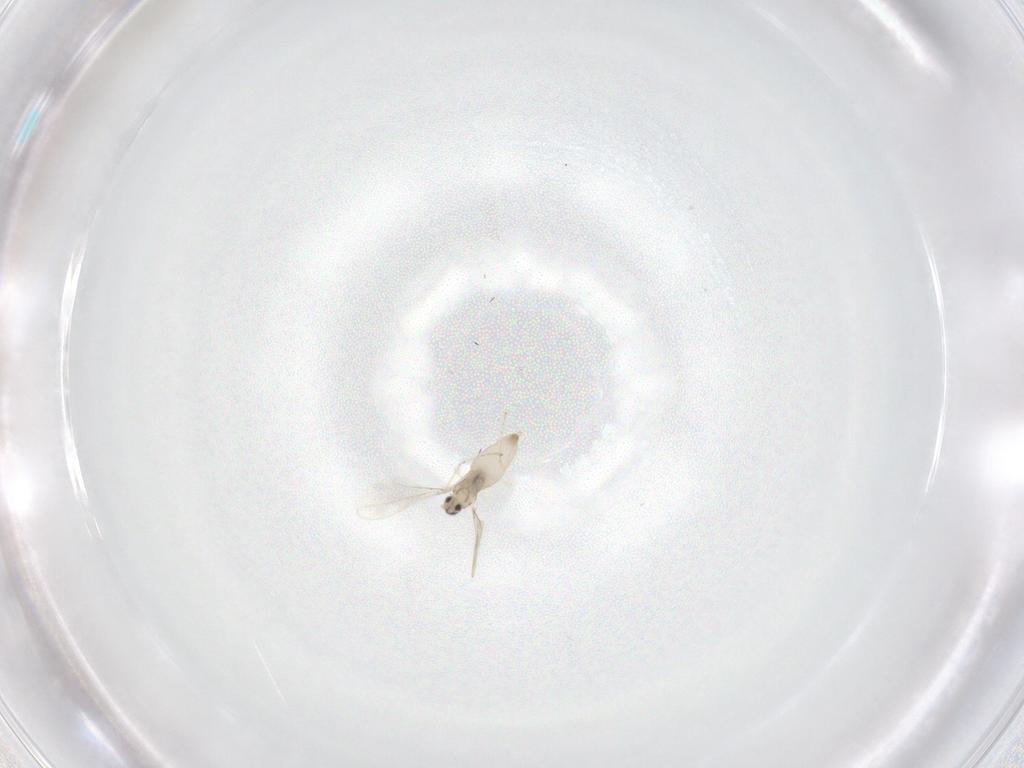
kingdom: Animalia
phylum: Arthropoda
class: Insecta
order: Diptera
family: Cecidomyiidae
